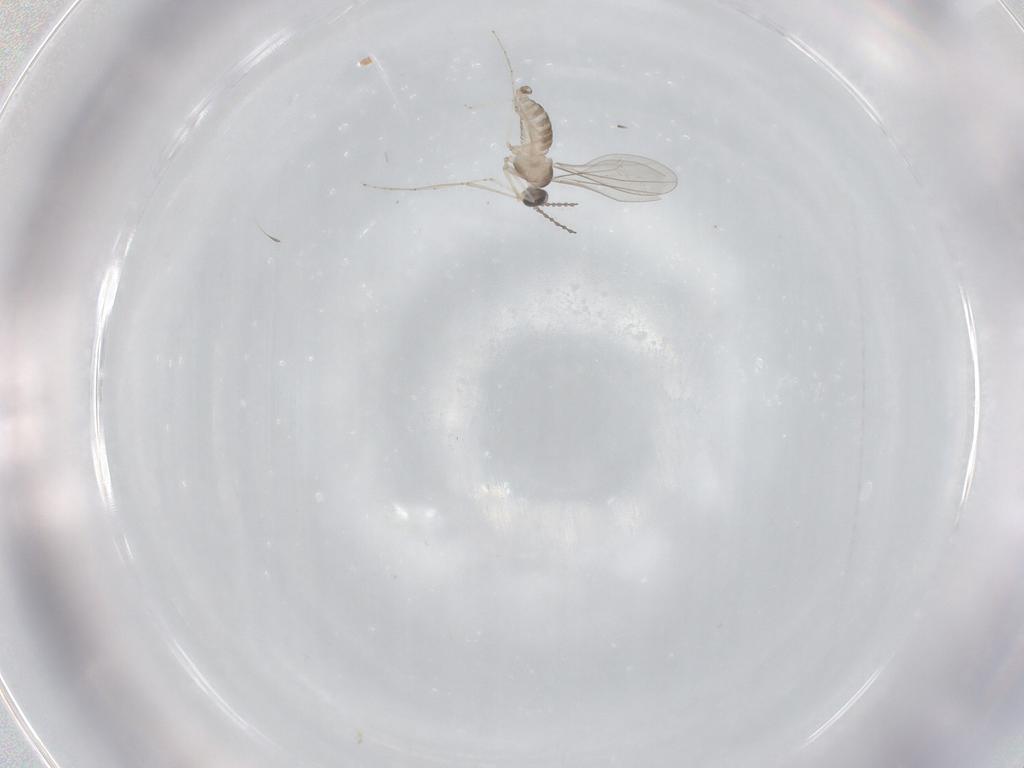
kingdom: Animalia
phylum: Arthropoda
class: Insecta
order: Diptera
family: Cecidomyiidae
